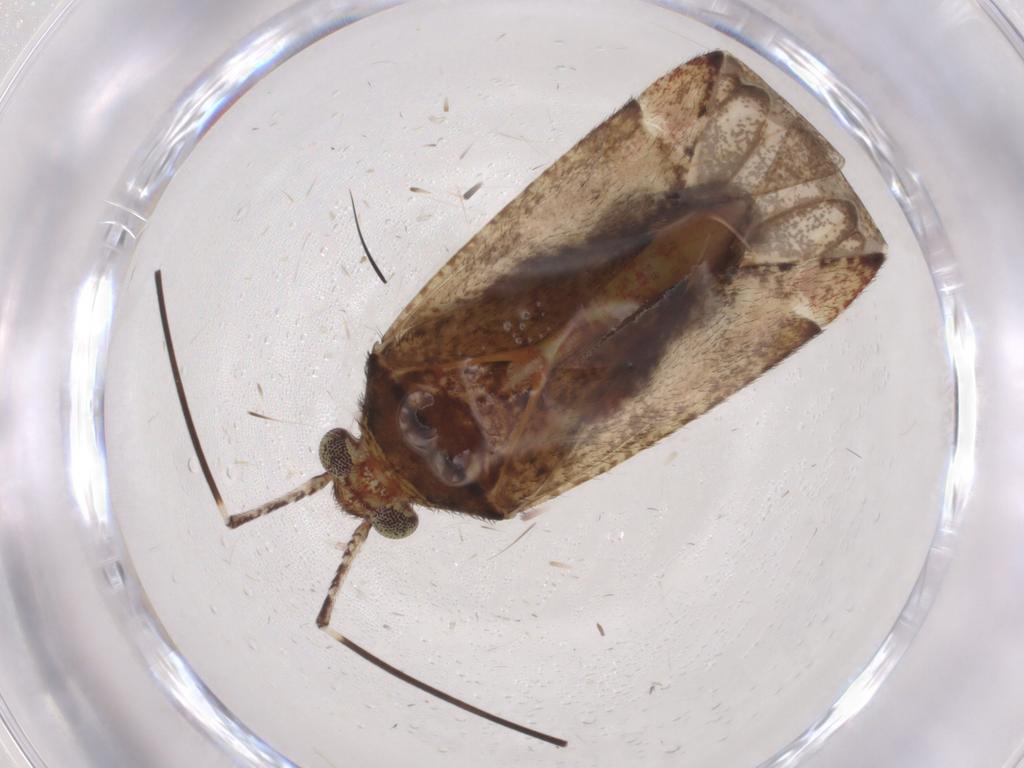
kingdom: Animalia
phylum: Arthropoda
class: Insecta
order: Hemiptera
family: Miridae
